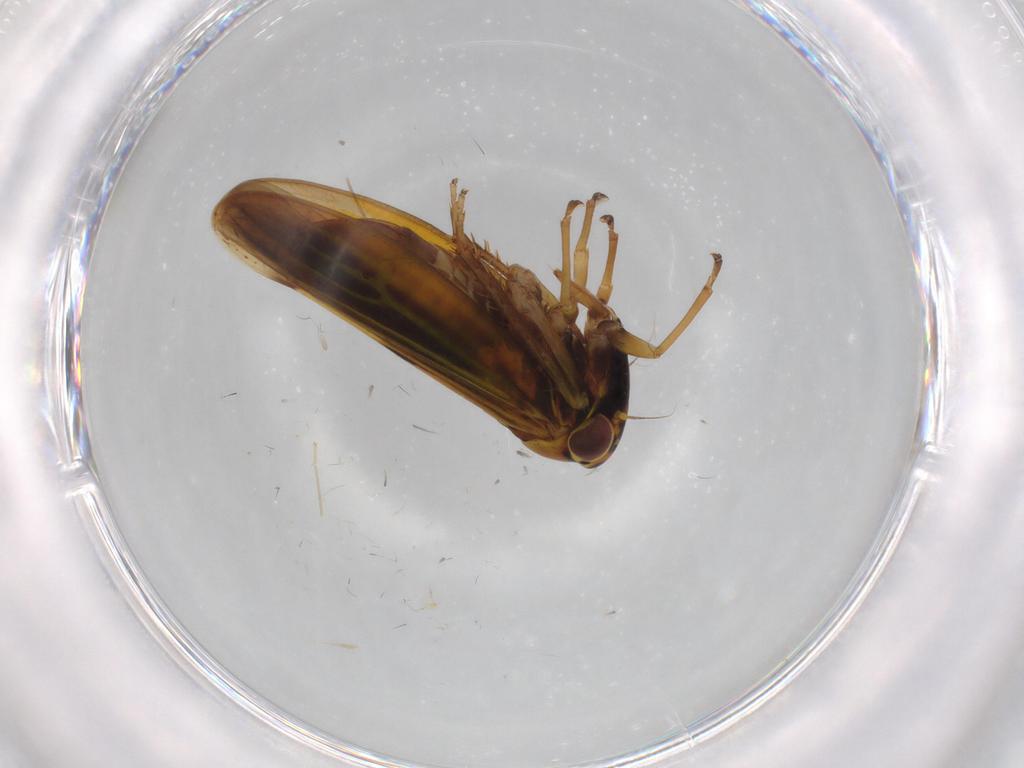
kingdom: Animalia
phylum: Arthropoda
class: Insecta
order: Hemiptera
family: Cicadellidae
